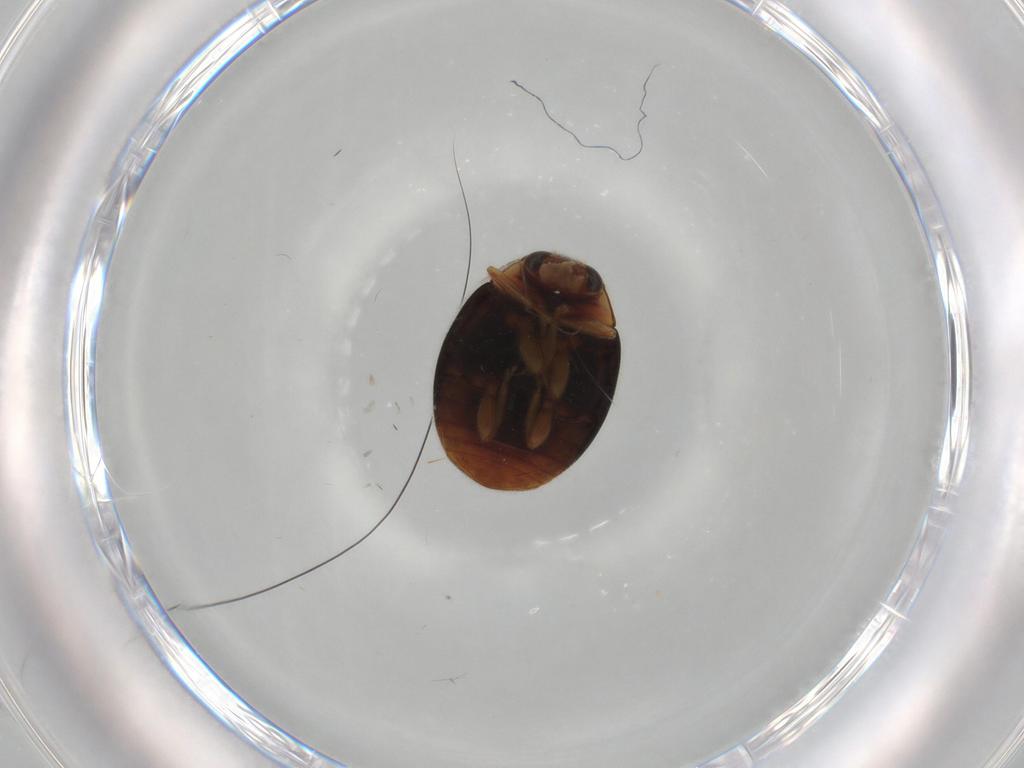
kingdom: Animalia
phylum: Arthropoda
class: Insecta
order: Coleoptera
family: Coccinellidae
